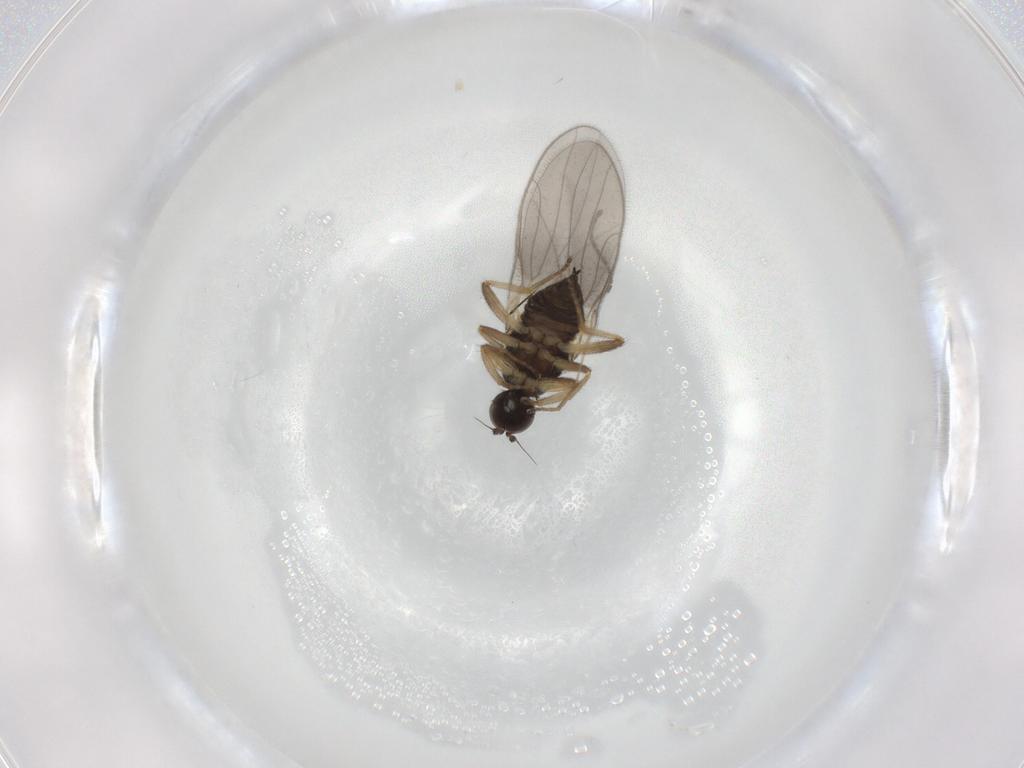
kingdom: Animalia
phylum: Arthropoda
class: Insecta
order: Diptera
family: Hybotidae
